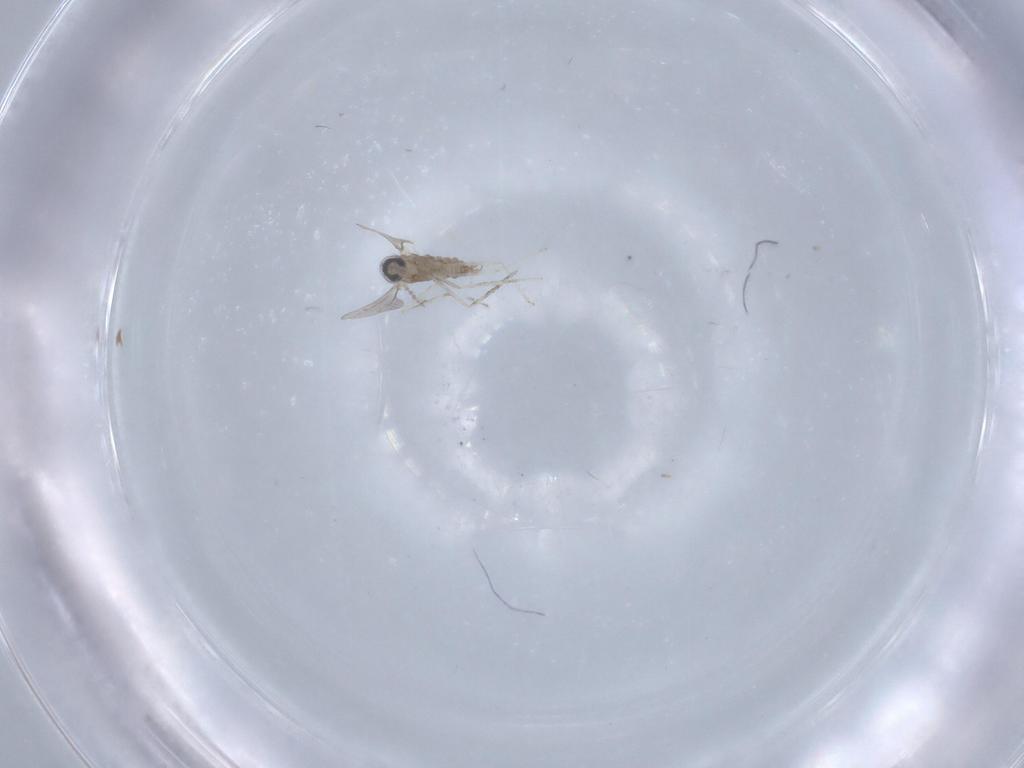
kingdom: Animalia
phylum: Arthropoda
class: Insecta
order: Diptera
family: Cecidomyiidae
